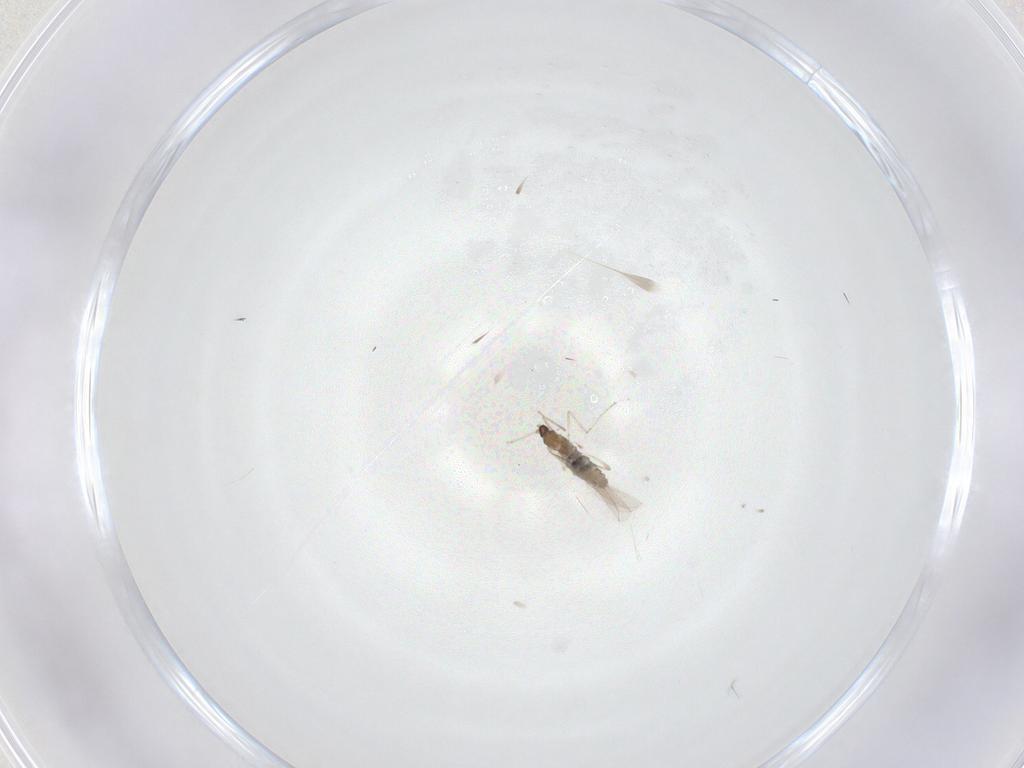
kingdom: Animalia
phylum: Arthropoda
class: Insecta
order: Diptera
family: Cecidomyiidae
